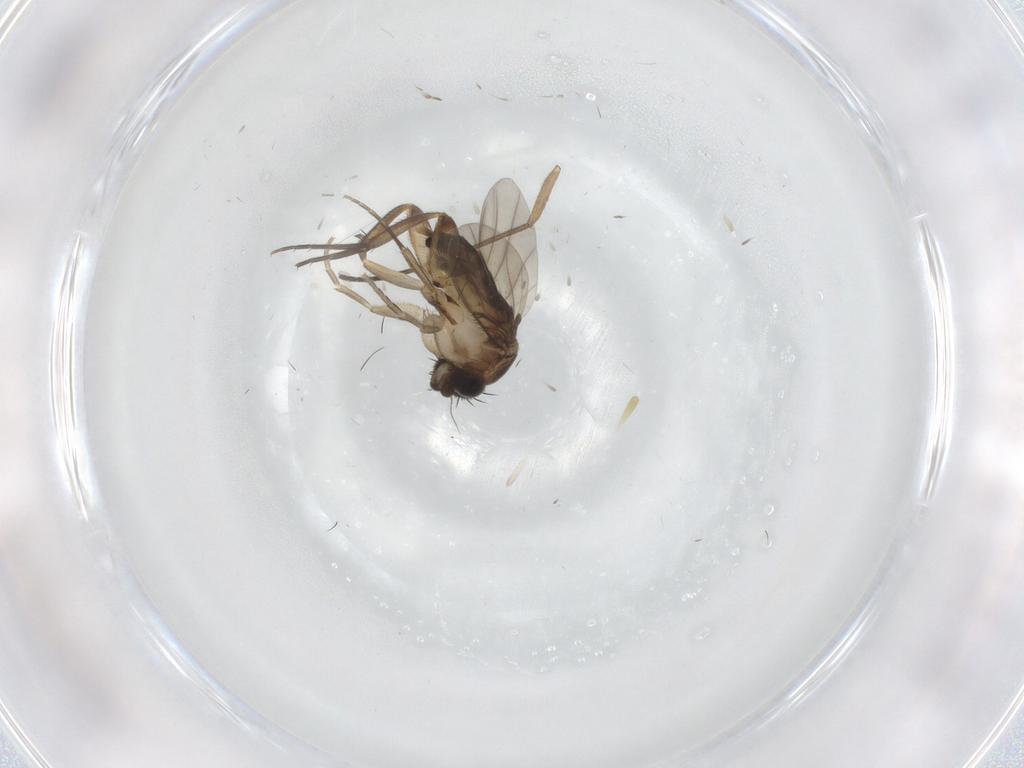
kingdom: Animalia
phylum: Arthropoda
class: Insecta
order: Diptera
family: Phoridae
